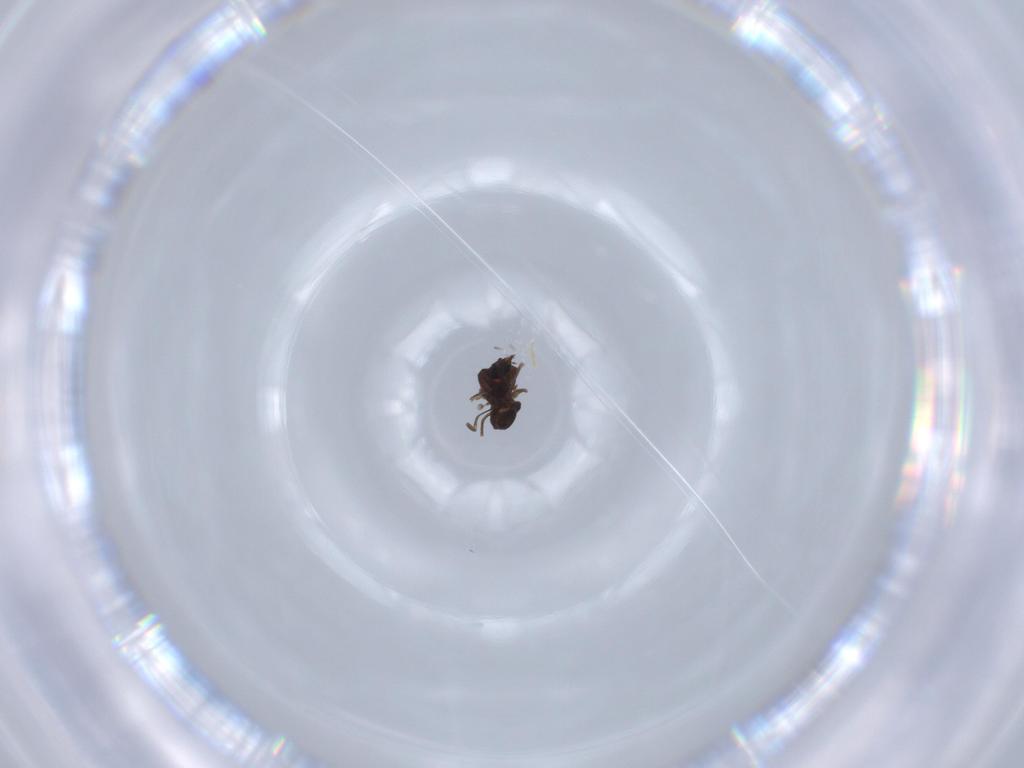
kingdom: Animalia
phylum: Arthropoda
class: Insecta
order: Diptera
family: Ceratopogonidae
